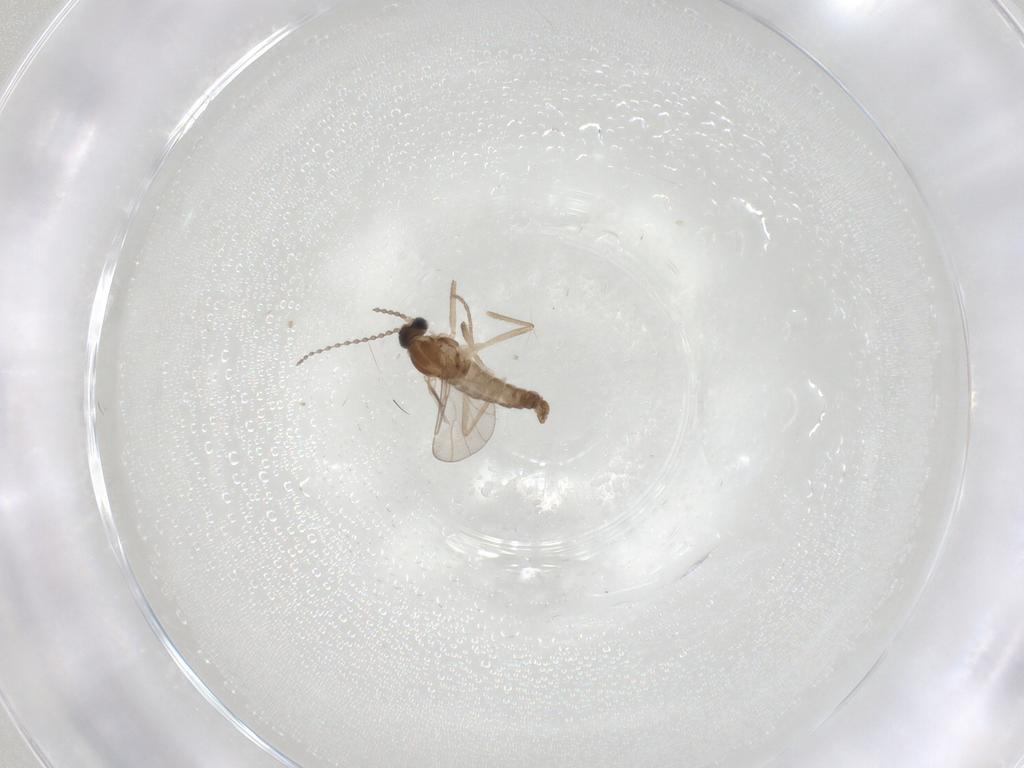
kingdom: Animalia
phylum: Arthropoda
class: Insecta
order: Diptera
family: Cecidomyiidae
